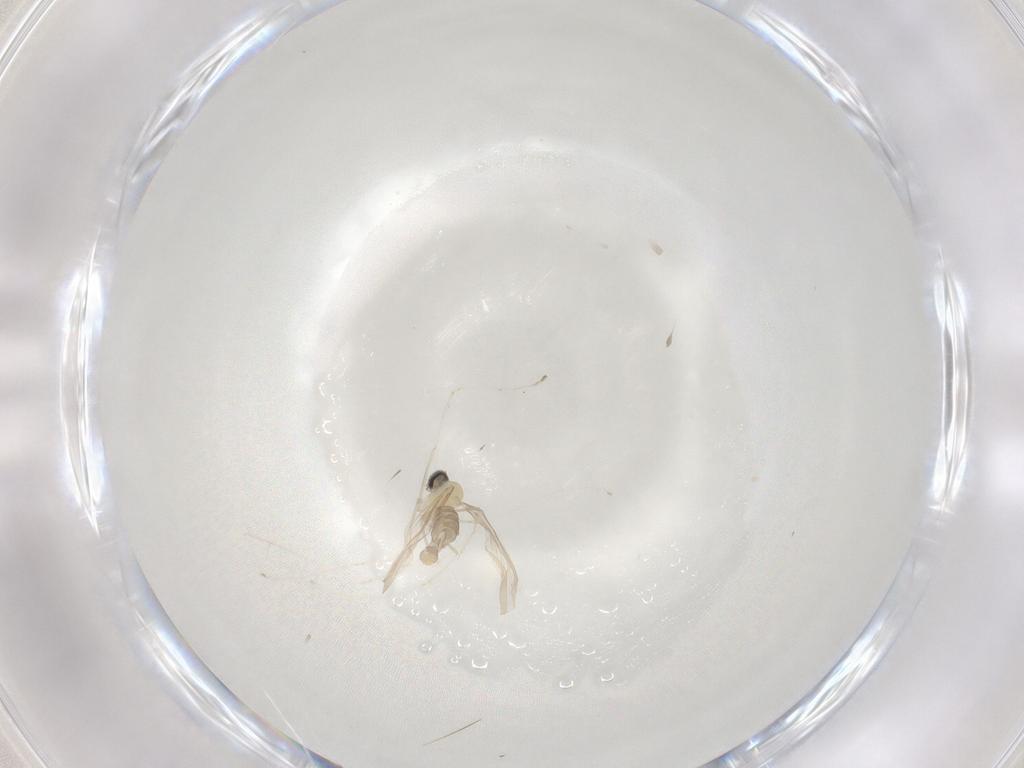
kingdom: Animalia
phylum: Arthropoda
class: Insecta
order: Diptera
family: Cecidomyiidae
